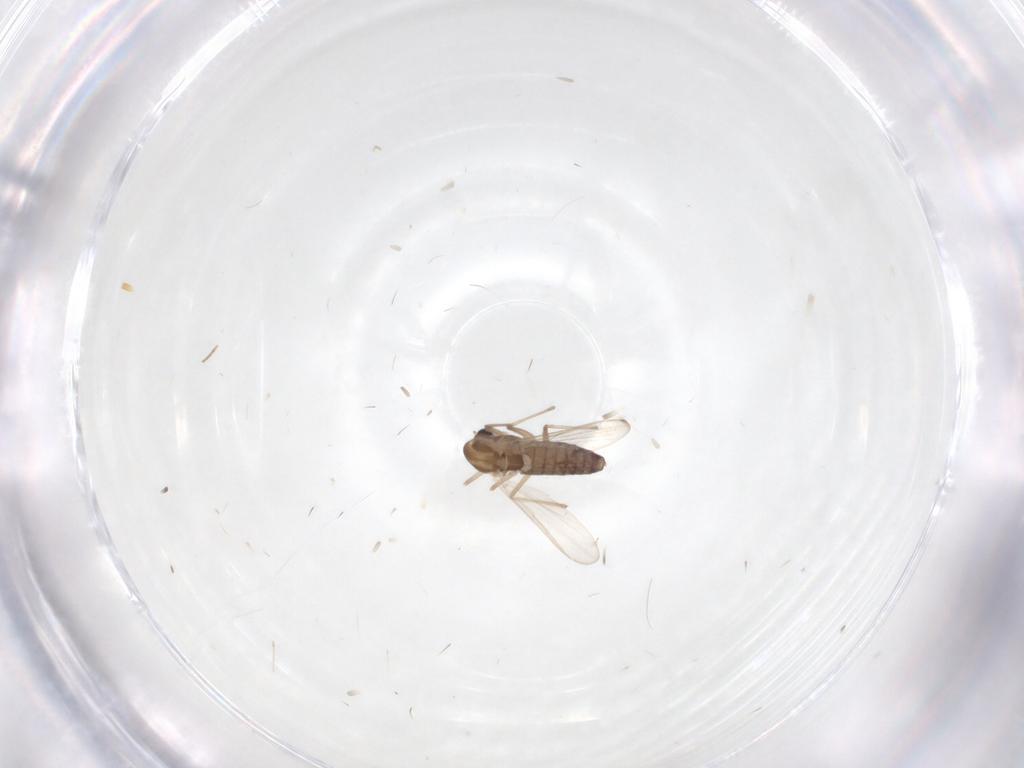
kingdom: Animalia
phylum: Arthropoda
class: Insecta
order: Diptera
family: Cecidomyiidae
